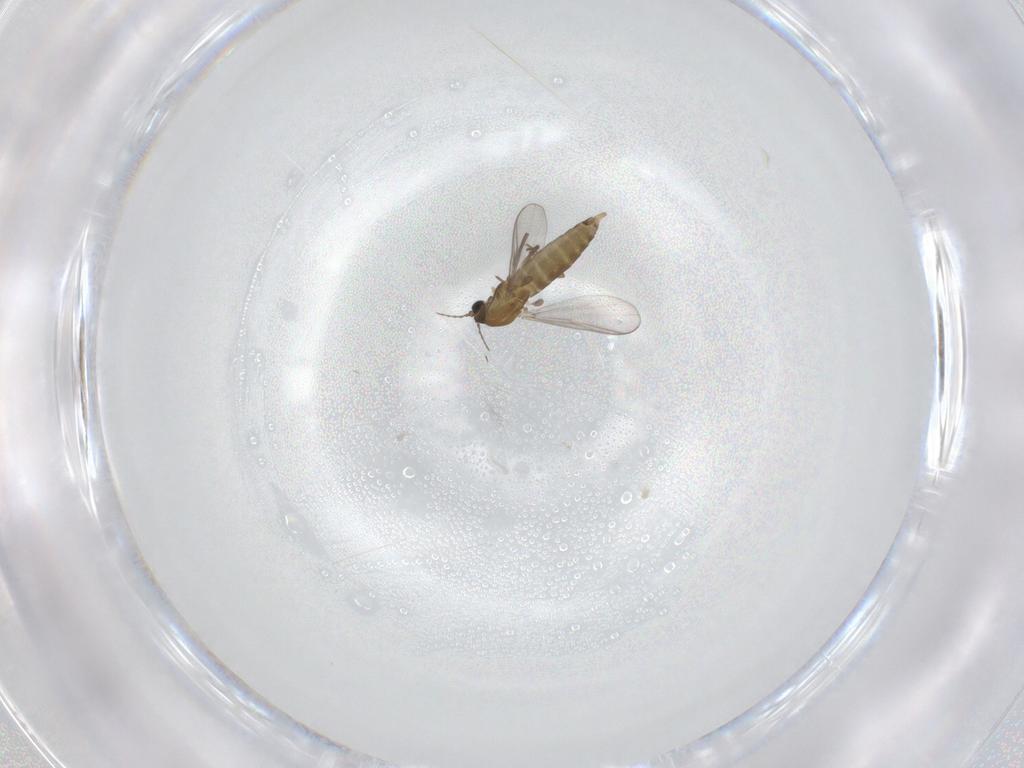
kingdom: Animalia
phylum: Arthropoda
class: Insecta
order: Diptera
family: Chironomidae
